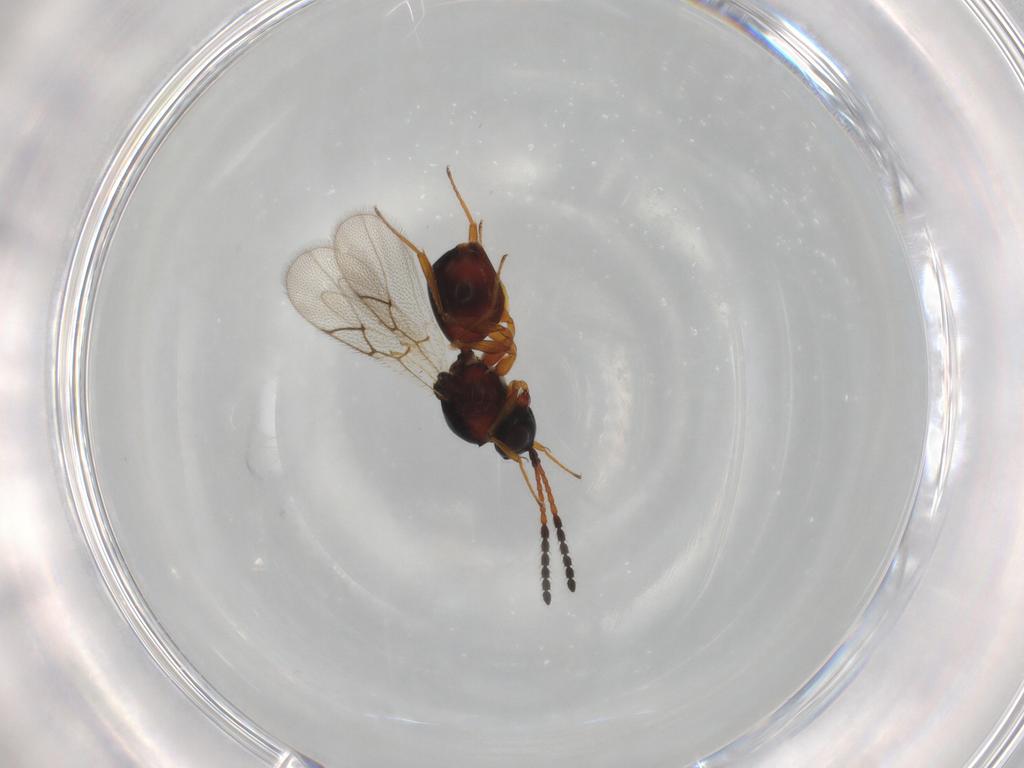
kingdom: Animalia
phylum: Arthropoda
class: Insecta
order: Hymenoptera
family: Figitidae
